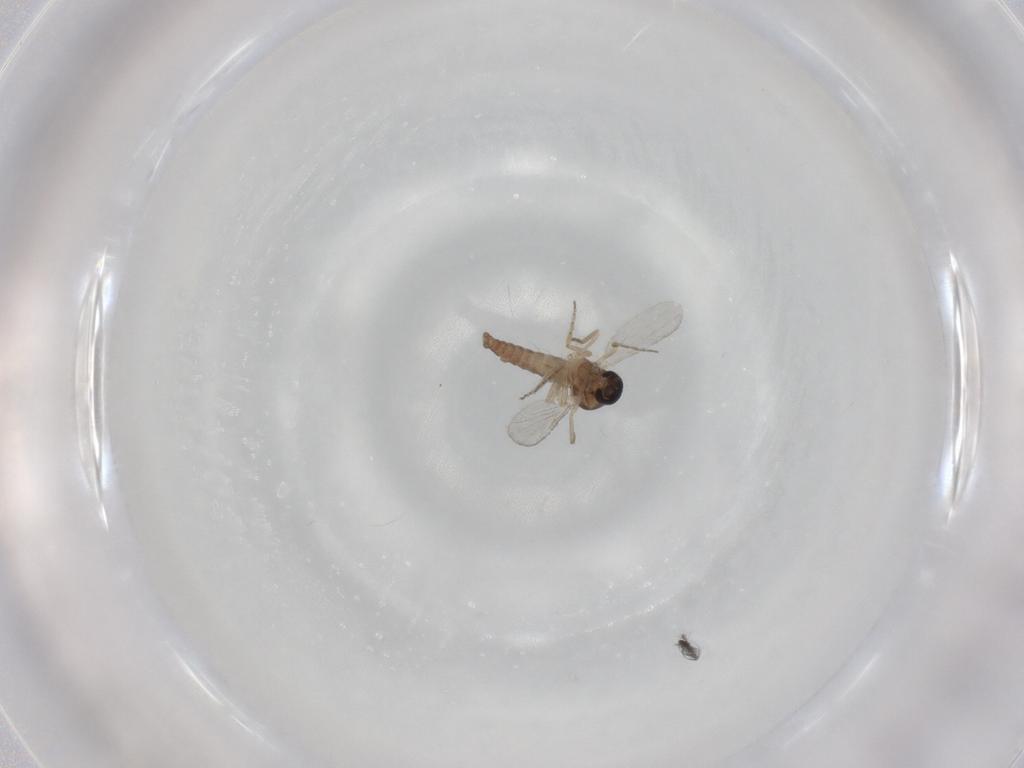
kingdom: Animalia
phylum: Arthropoda
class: Insecta
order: Diptera
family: Ceratopogonidae
